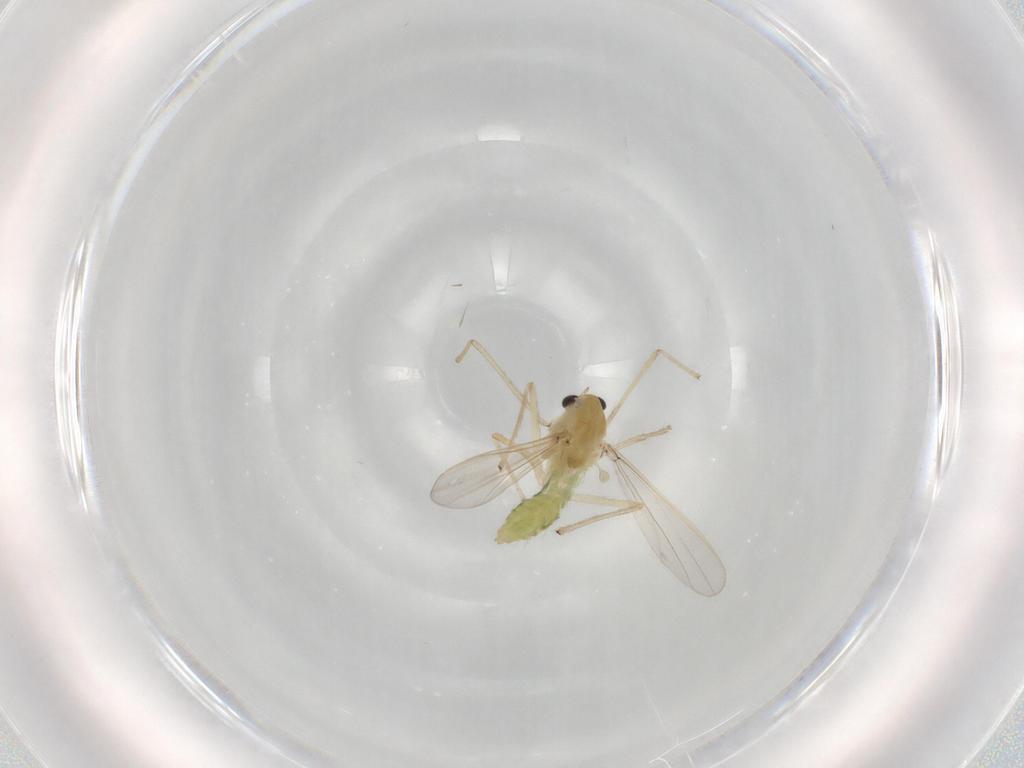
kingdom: Animalia
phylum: Arthropoda
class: Insecta
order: Diptera
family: Chironomidae
